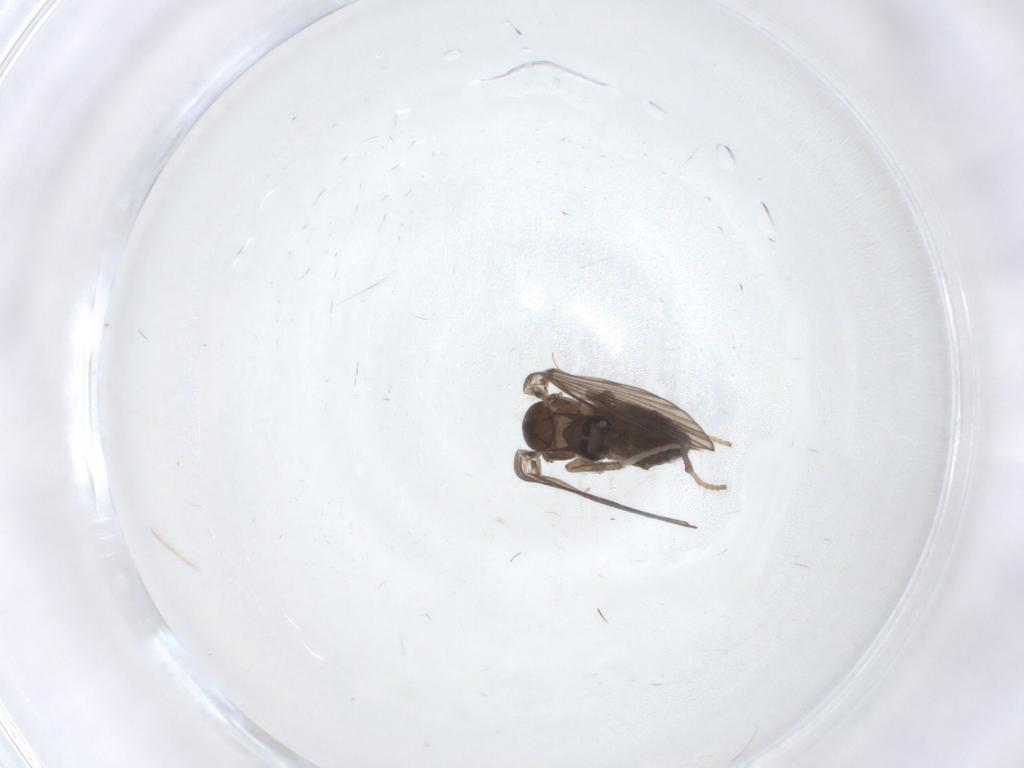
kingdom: Animalia
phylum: Arthropoda
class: Insecta
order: Diptera
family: Psychodidae
